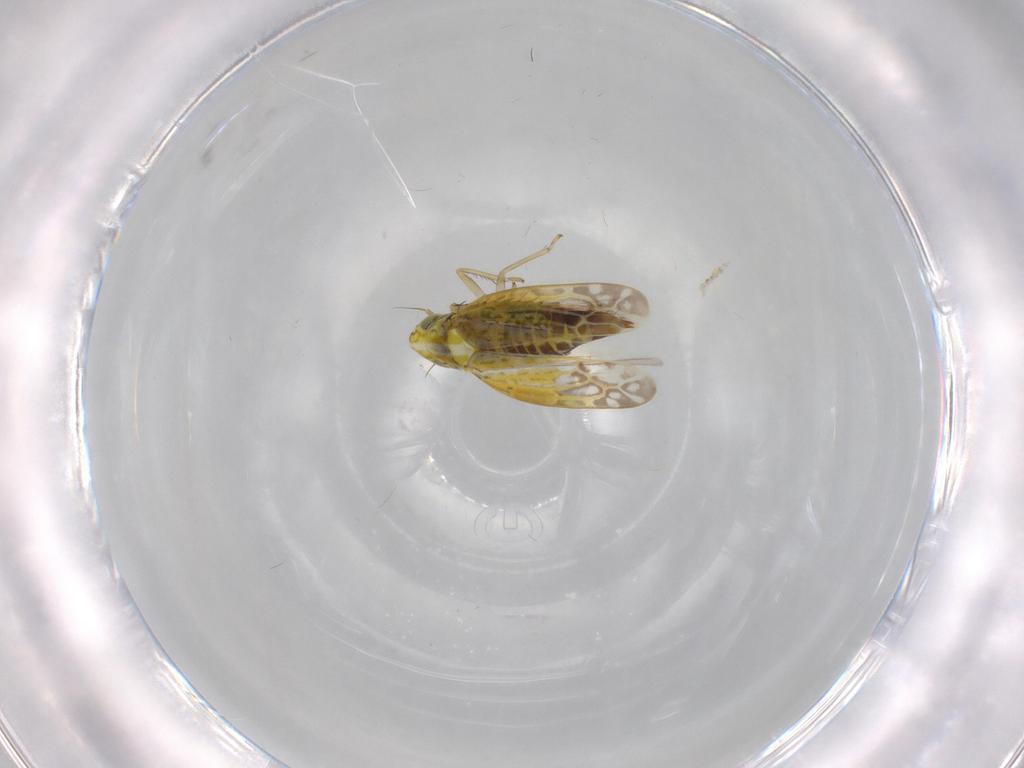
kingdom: Animalia
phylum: Arthropoda
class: Insecta
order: Hemiptera
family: Cicadellidae
